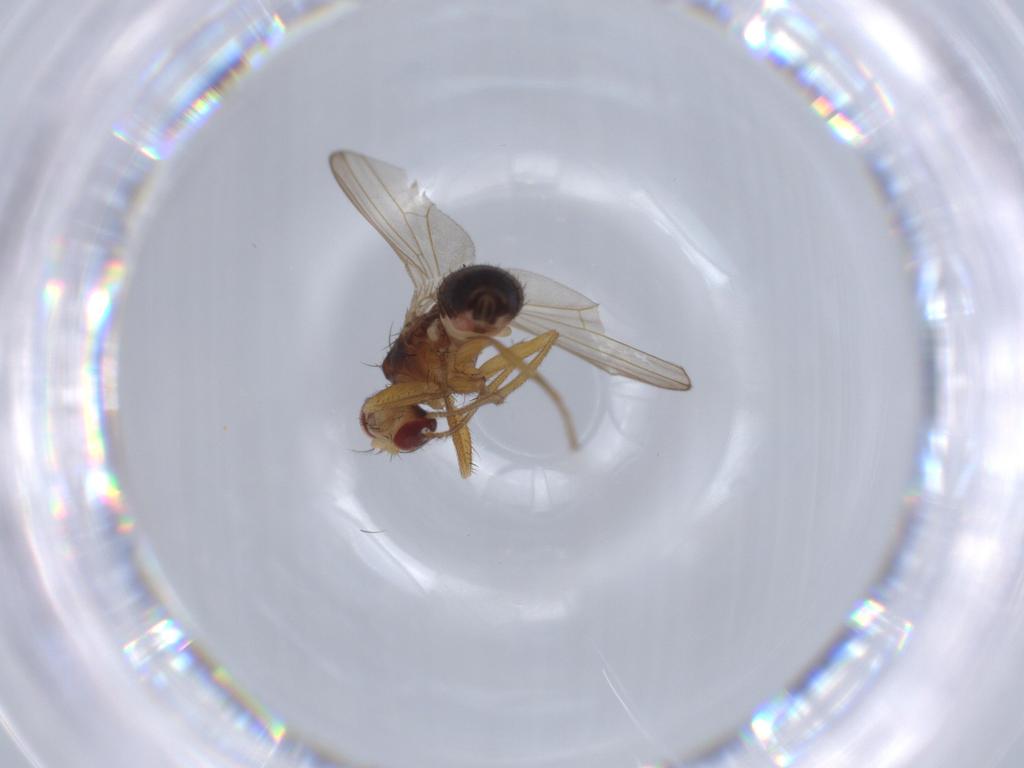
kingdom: Animalia
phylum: Arthropoda
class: Insecta
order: Diptera
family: Drosophilidae
